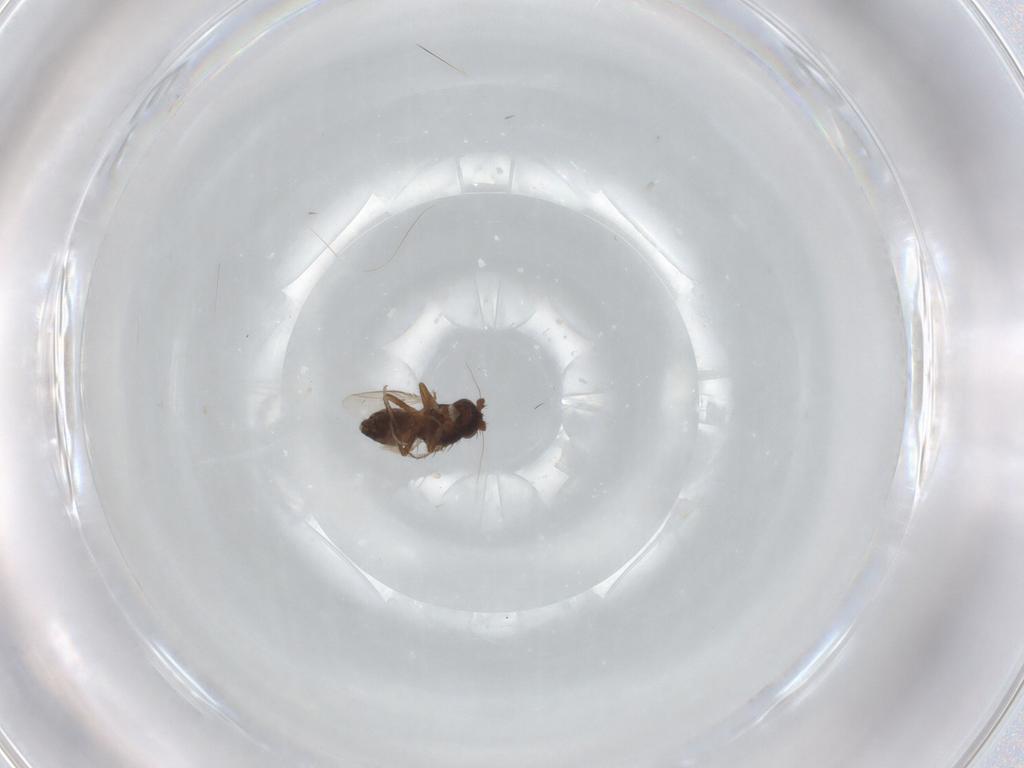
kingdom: Animalia
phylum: Arthropoda
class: Insecta
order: Diptera
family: Sphaeroceridae
